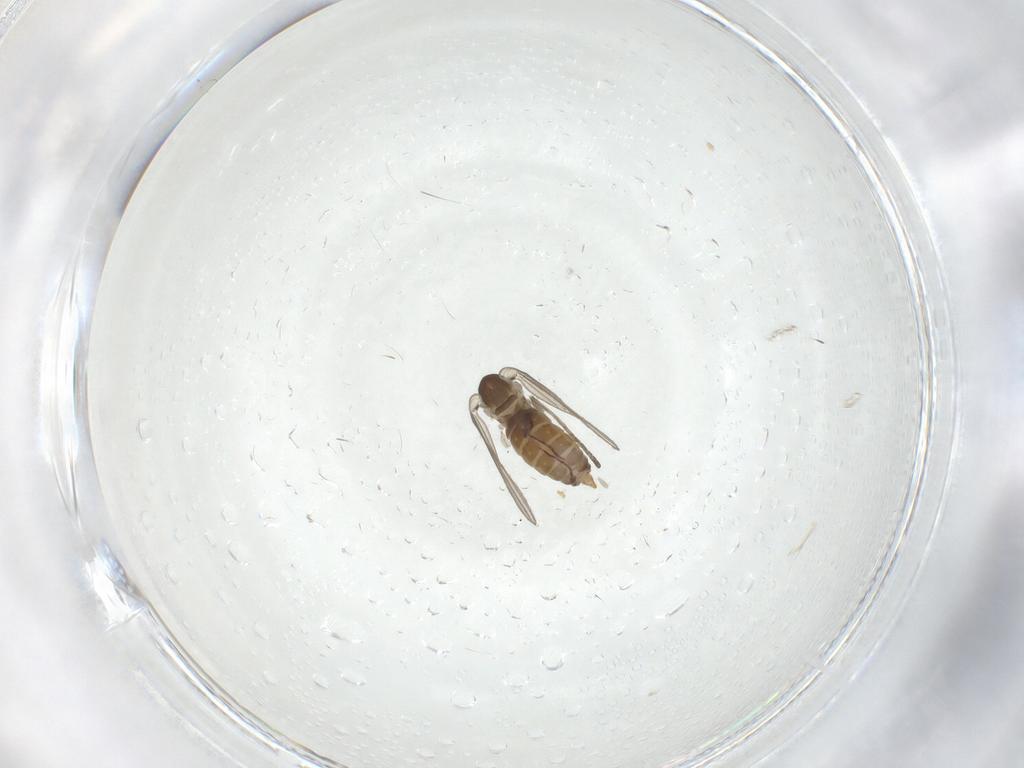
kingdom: Animalia
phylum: Arthropoda
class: Insecta
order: Diptera
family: Psychodidae
